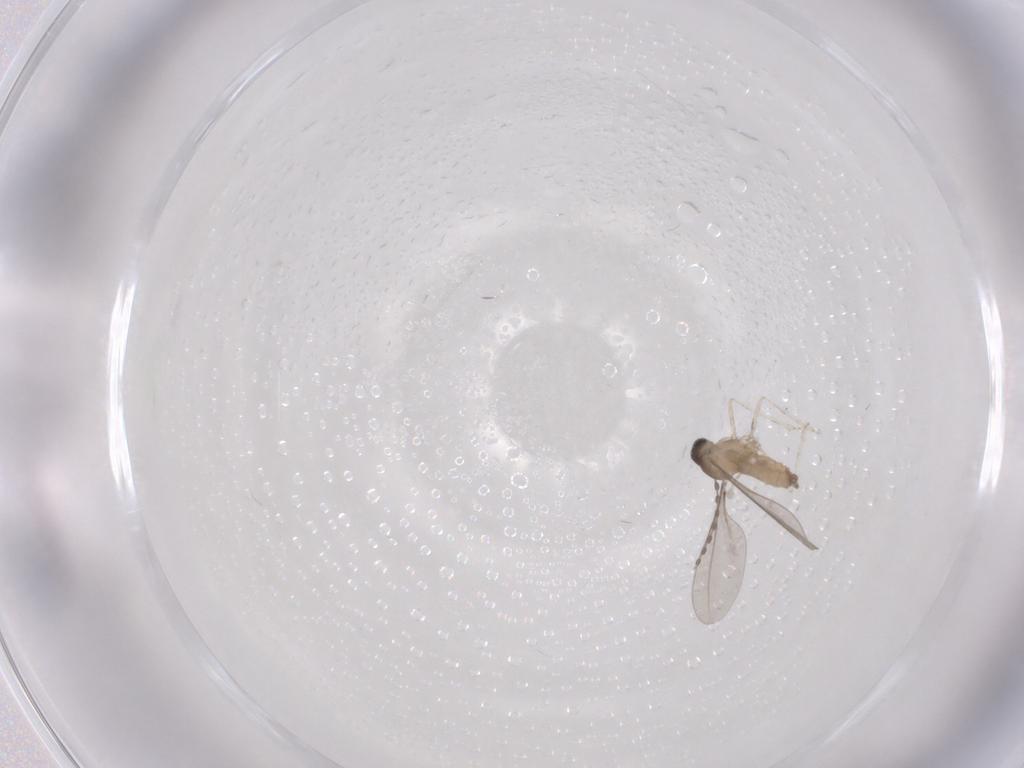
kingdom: Animalia
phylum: Arthropoda
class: Insecta
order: Diptera
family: Cecidomyiidae
